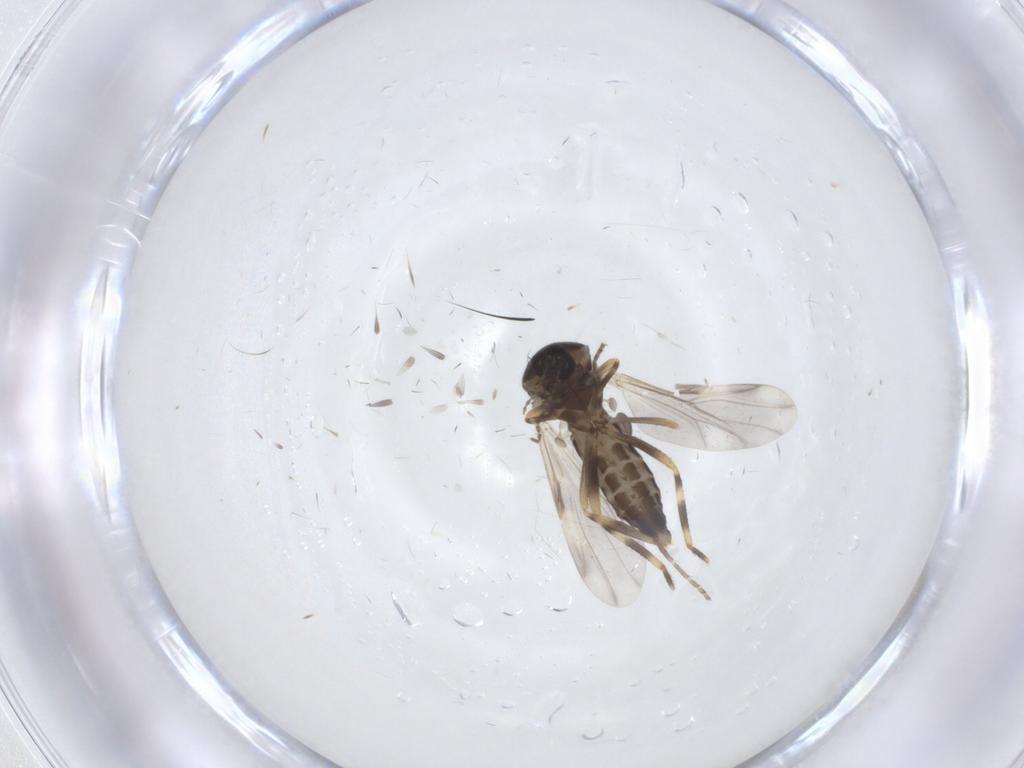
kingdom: Animalia
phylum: Arthropoda
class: Insecta
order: Diptera
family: Ceratopogonidae
